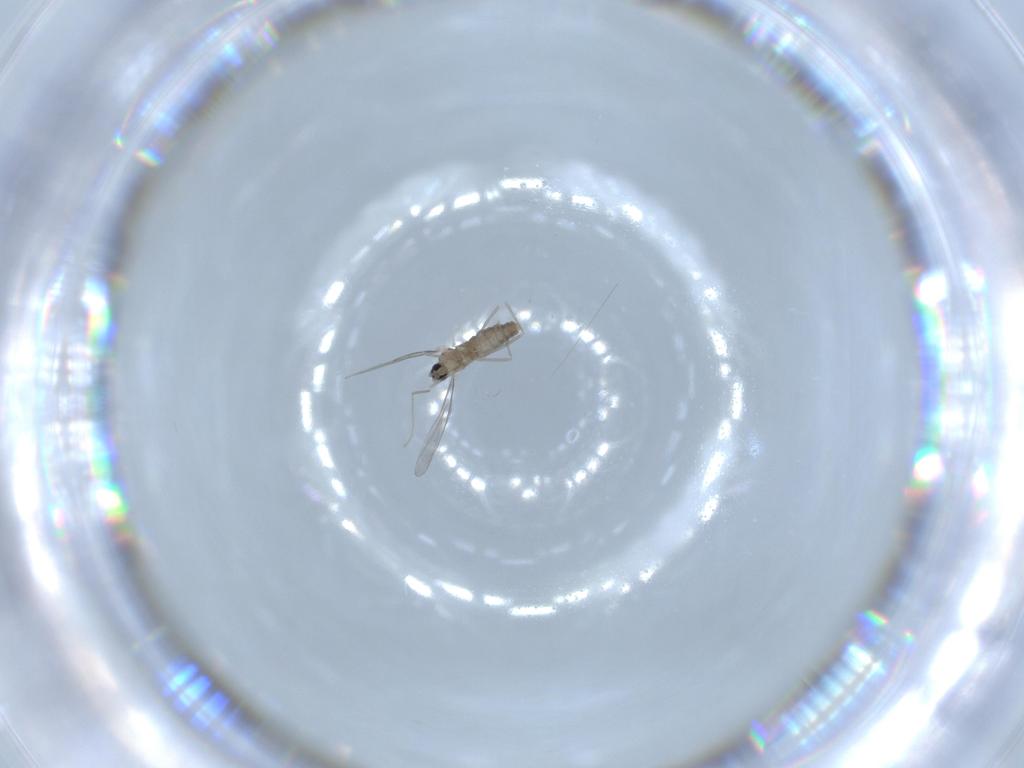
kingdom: Animalia
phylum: Arthropoda
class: Insecta
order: Diptera
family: Cecidomyiidae
